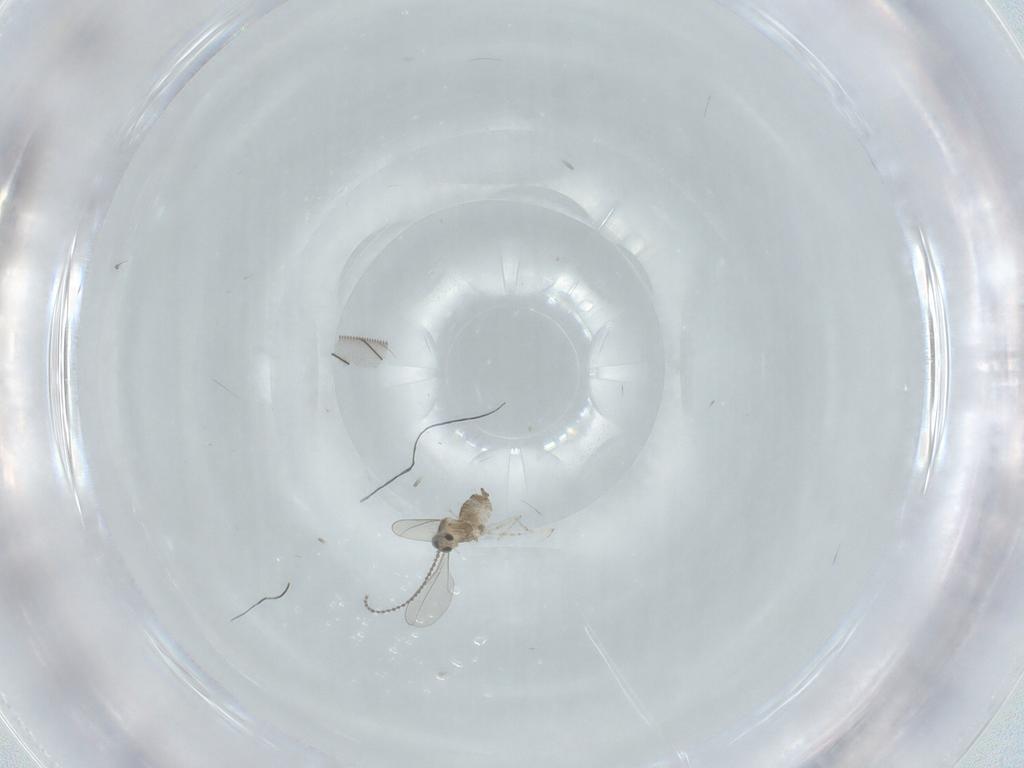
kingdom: Animalia
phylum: Arthropoda
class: Insecta
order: Diptera
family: Cecidomyiidae
